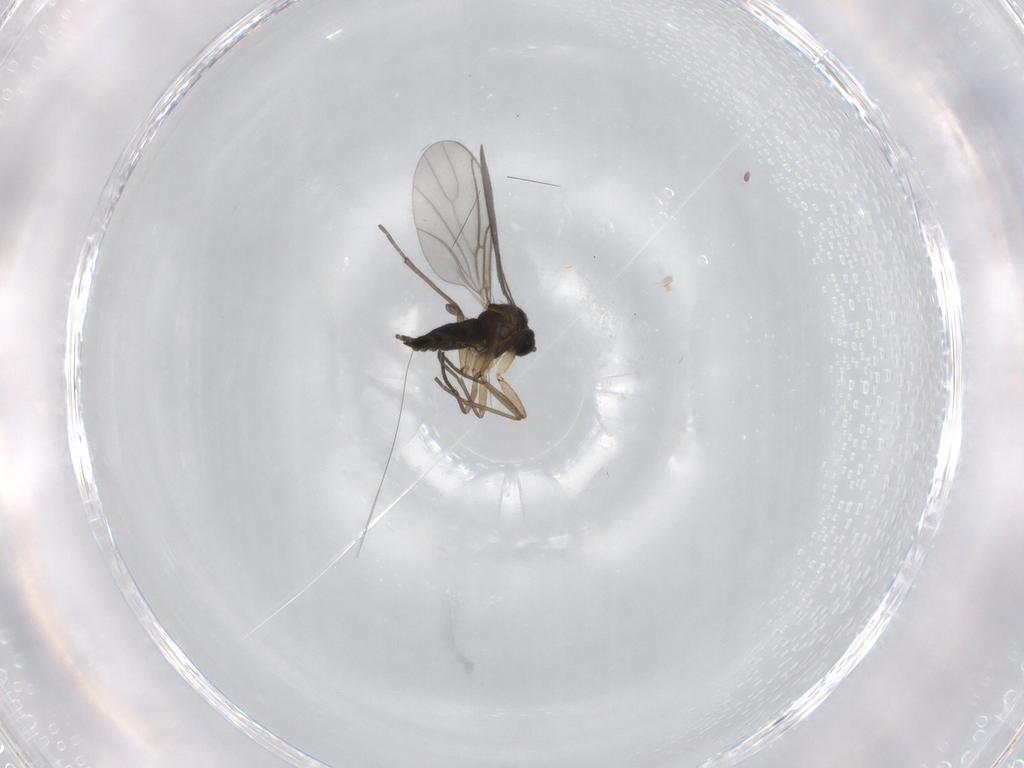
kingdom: Animalia
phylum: Arthropoda
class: Insecta
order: Diptera
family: Sciaridae
